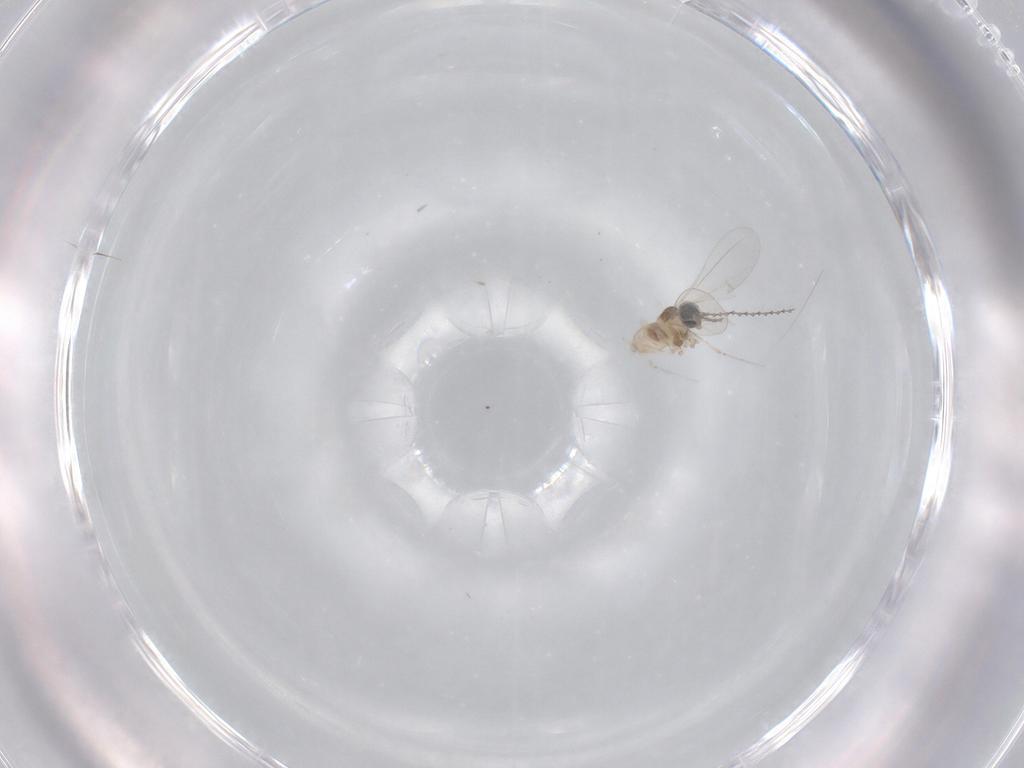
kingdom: Animalia
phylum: Arthropoda
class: Insecta
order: Diptera
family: Cecidomyiidae
